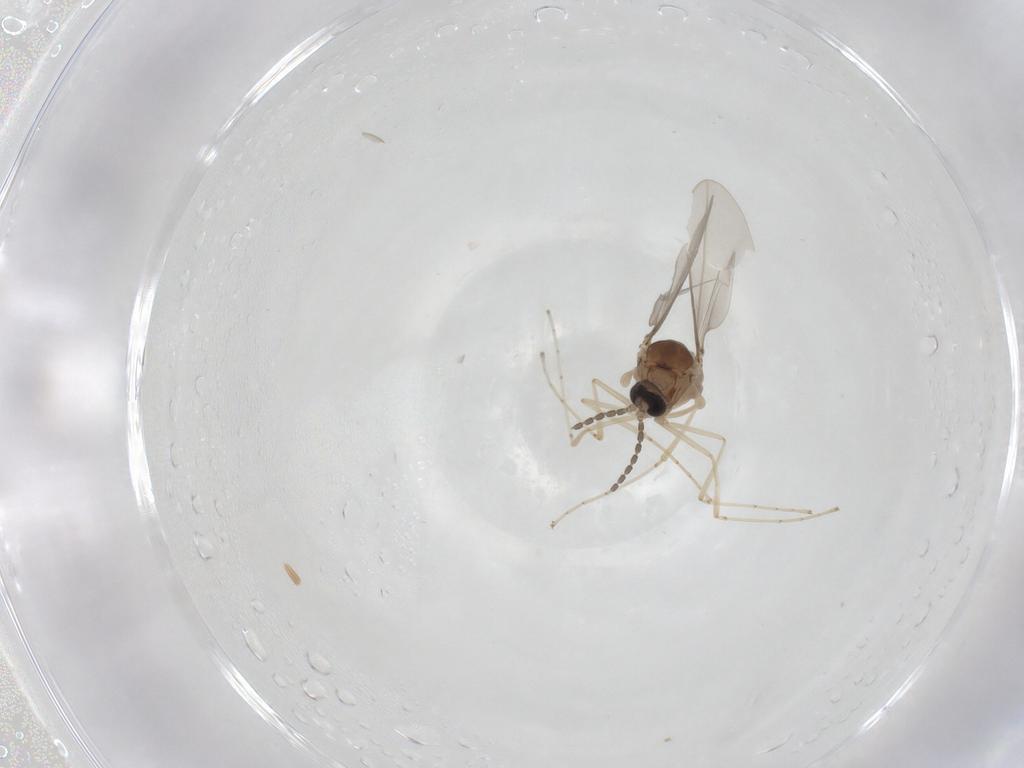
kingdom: Animalia
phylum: Arthropoda
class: Insecta
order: Diptera
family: Cecidomyiidae
